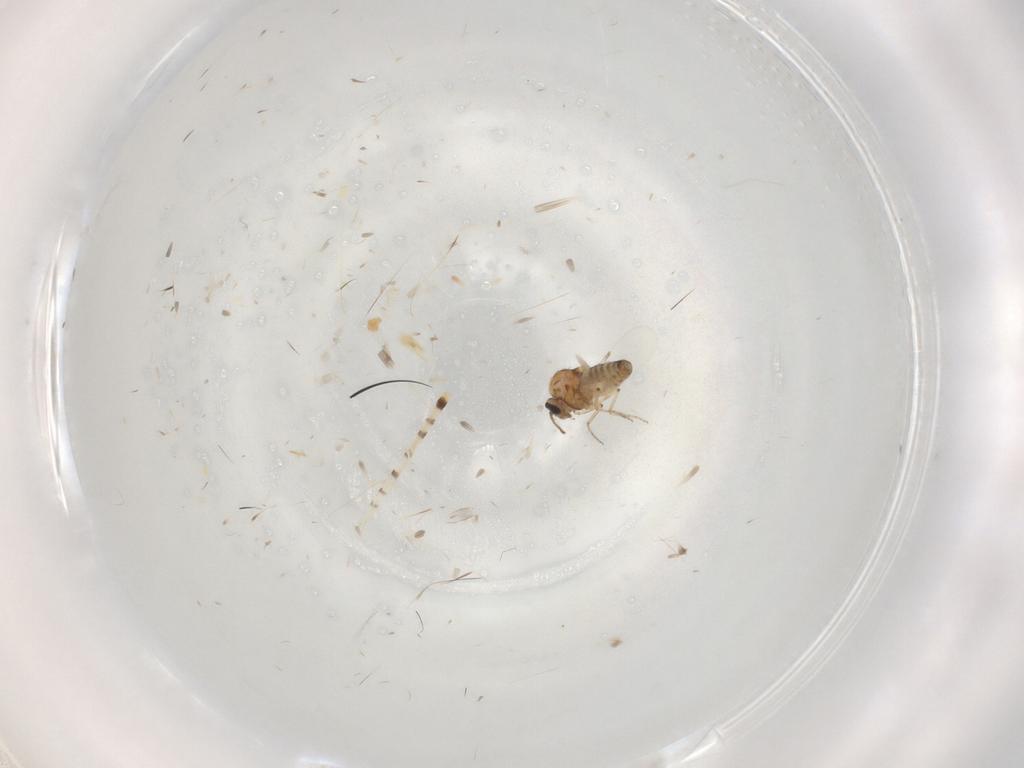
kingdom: Animalia
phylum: Arthropoda
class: Insecta
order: Diptera
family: Ceratopogonidae
